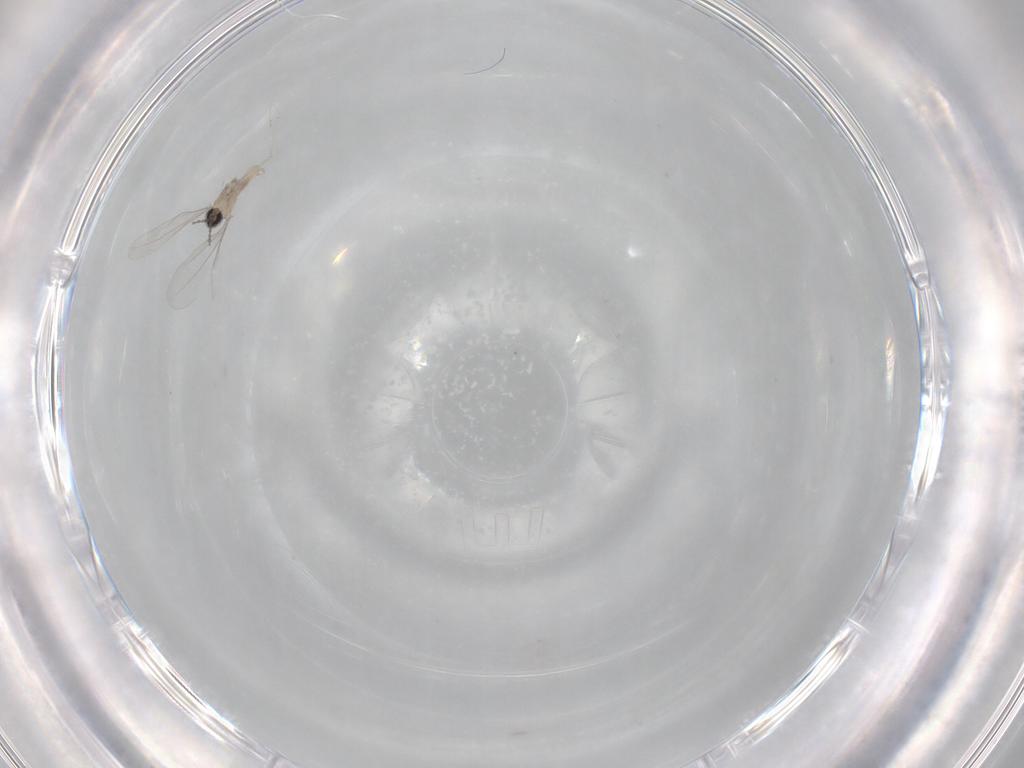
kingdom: Animalia
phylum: Arthropoda
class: Insecta
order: Diptera
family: Cecidomyiidae
